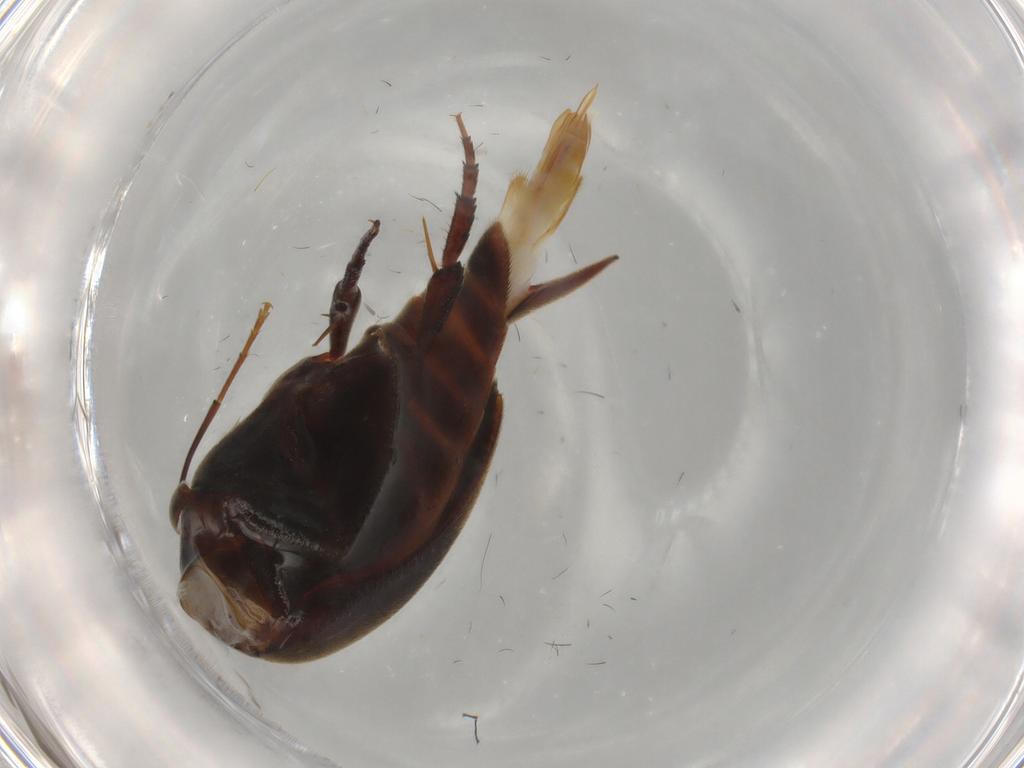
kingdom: Animalia
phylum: Arthropoda
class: Insecta
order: Coleoptera
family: Mordellidae
